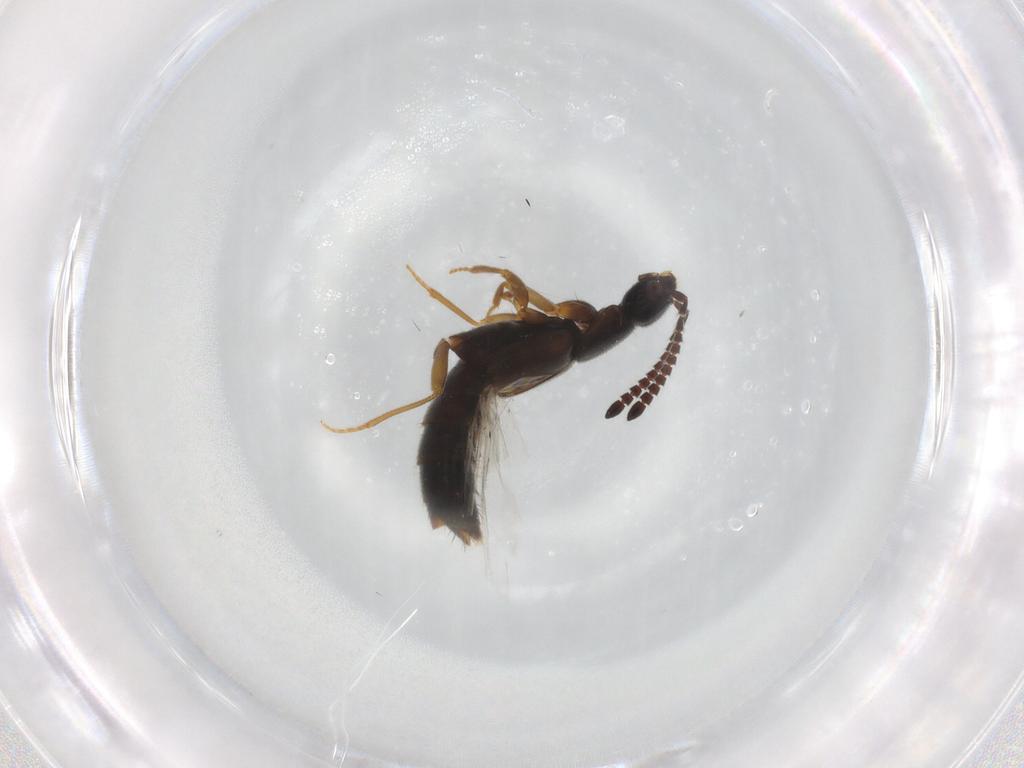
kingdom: Animalia
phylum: Arthropoda
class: Insecta
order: Coleoptera
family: Staphylinidae
